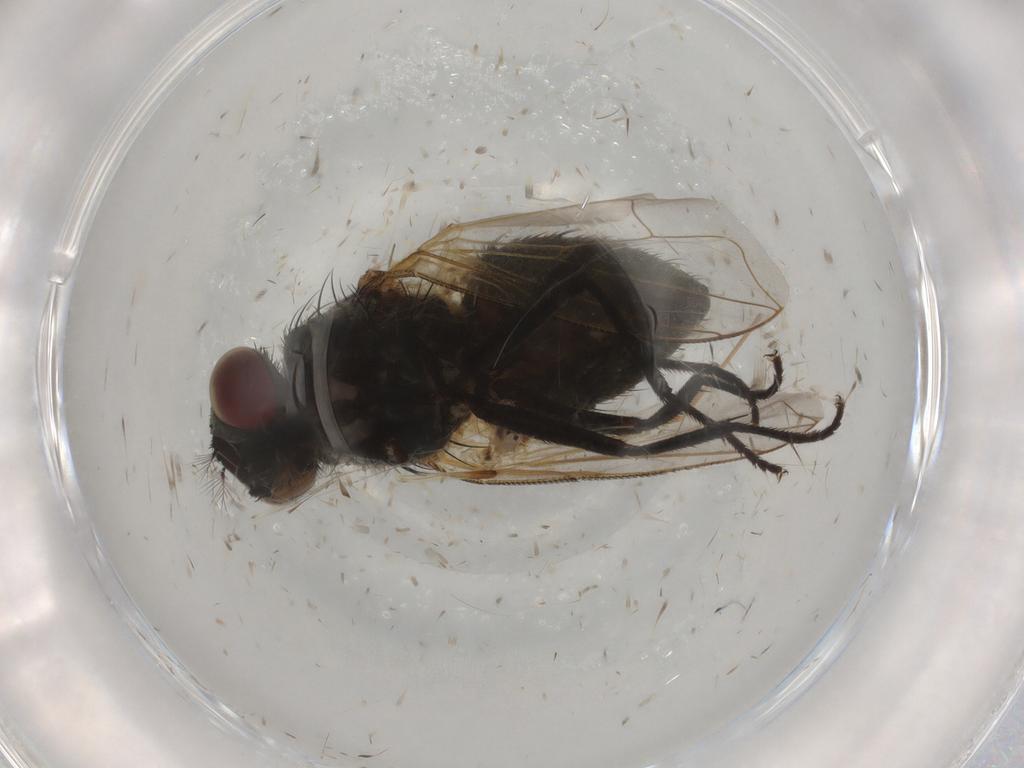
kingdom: Animalia
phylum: Arthropoda
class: Insecta
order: Diptera
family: Muscidae
